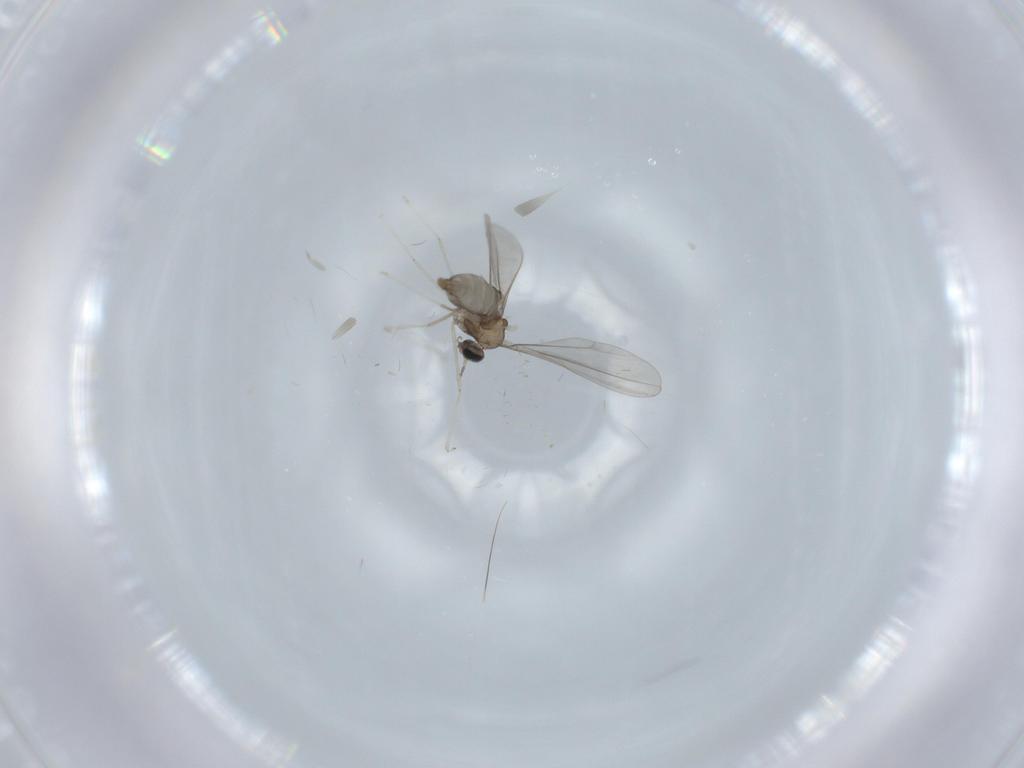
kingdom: Animalia
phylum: Arthropoda
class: Insecta
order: Diptera
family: Cecidomyiidae
